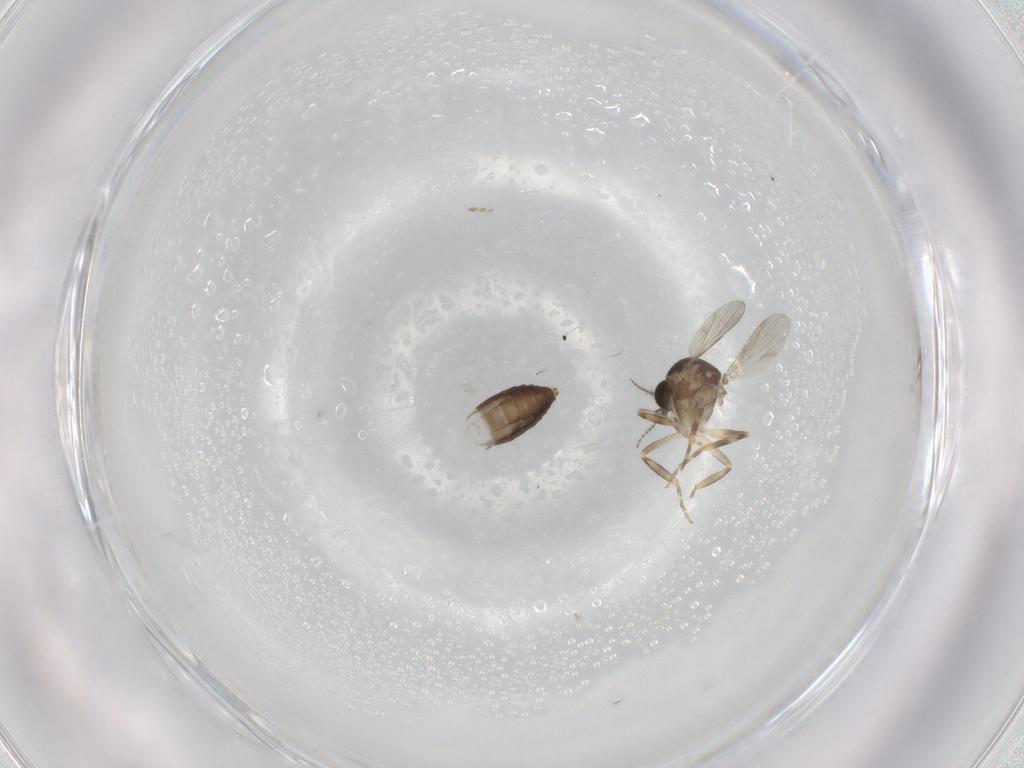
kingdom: Animalia
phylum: Arthropoda
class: Insecta
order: Diptera
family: Ceratopogonidae
